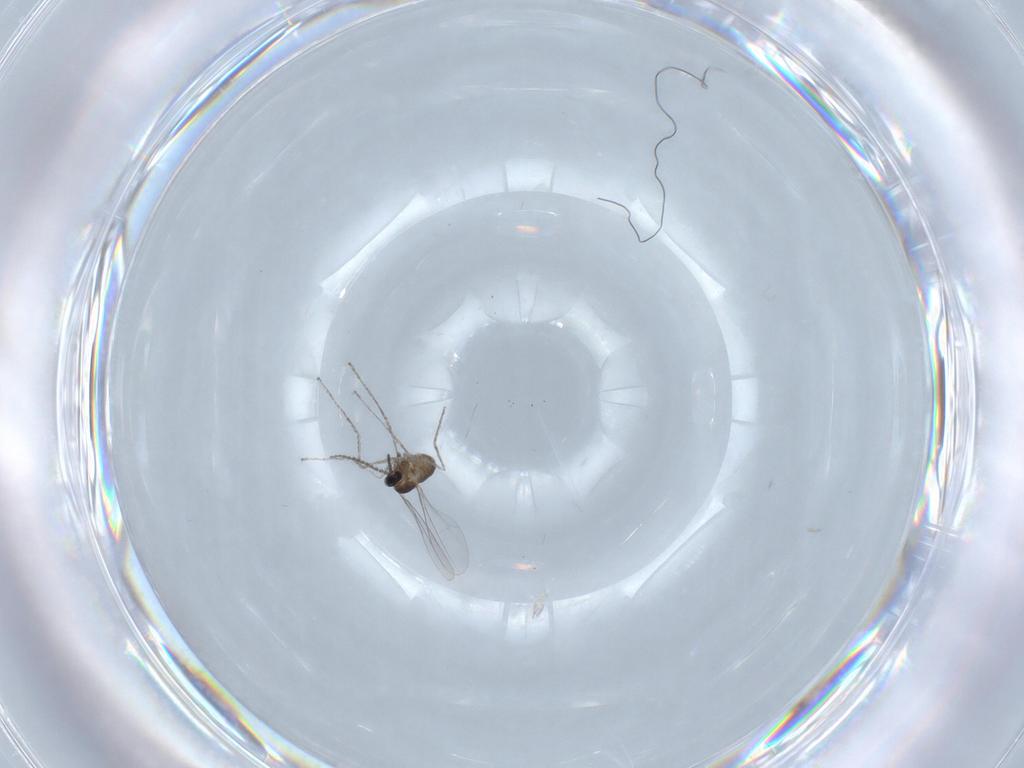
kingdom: Animalia
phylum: Arthropoda
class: Insecta
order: Diptera
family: Cecidomyiidae
